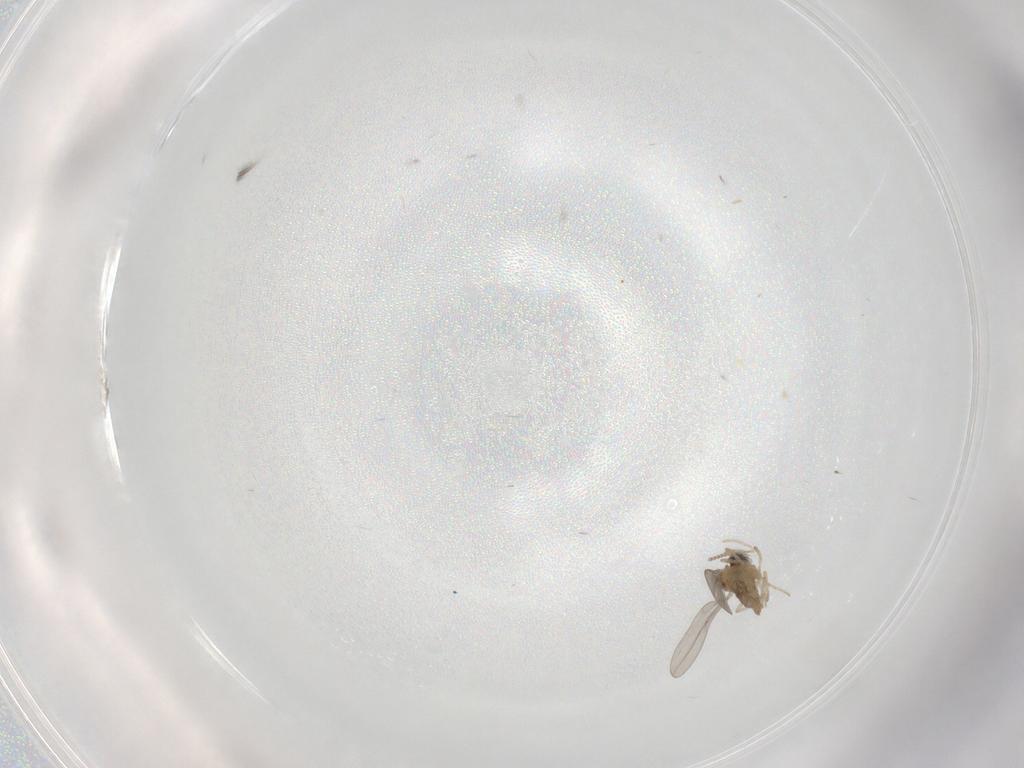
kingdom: Animalia
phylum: Arthropoda
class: Insecta
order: Diptera
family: Cecidomyiidae
